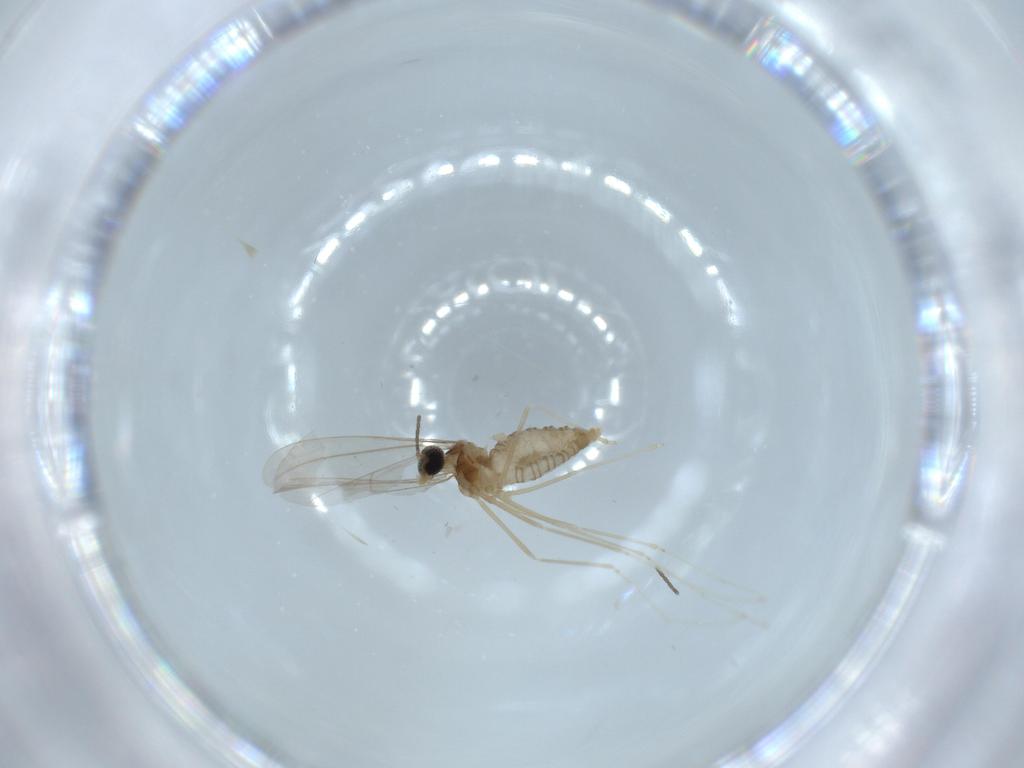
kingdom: Animalia
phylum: Arthropoda
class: Insecta
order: Diptera
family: Cecidomyiidae
